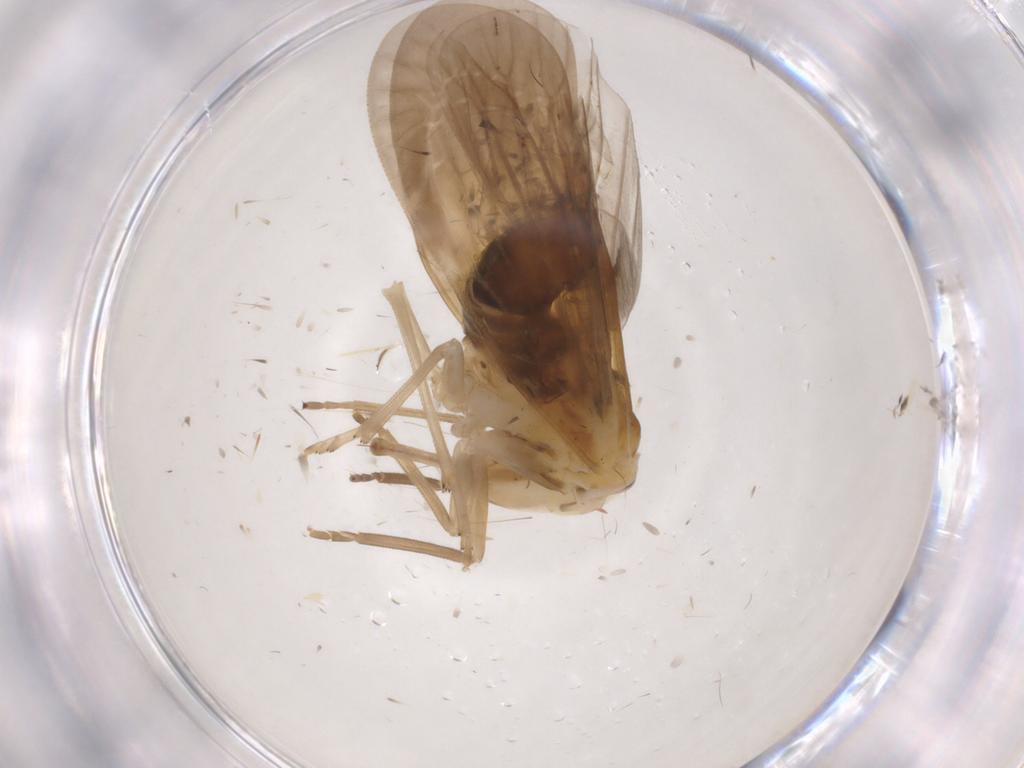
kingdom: Animalia
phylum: Arthropoda
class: Insecta
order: Hemiptera
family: Derbidae
